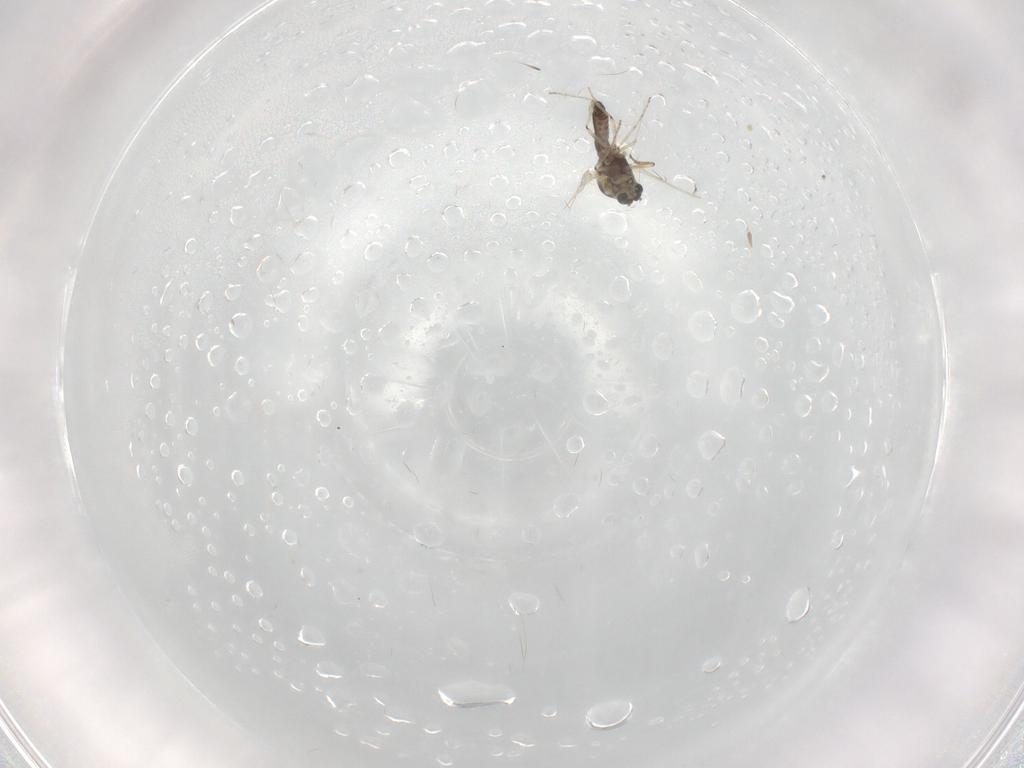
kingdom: Animalia
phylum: Arthropoda
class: Insecta
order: Diptera
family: Ceratopogonidae
